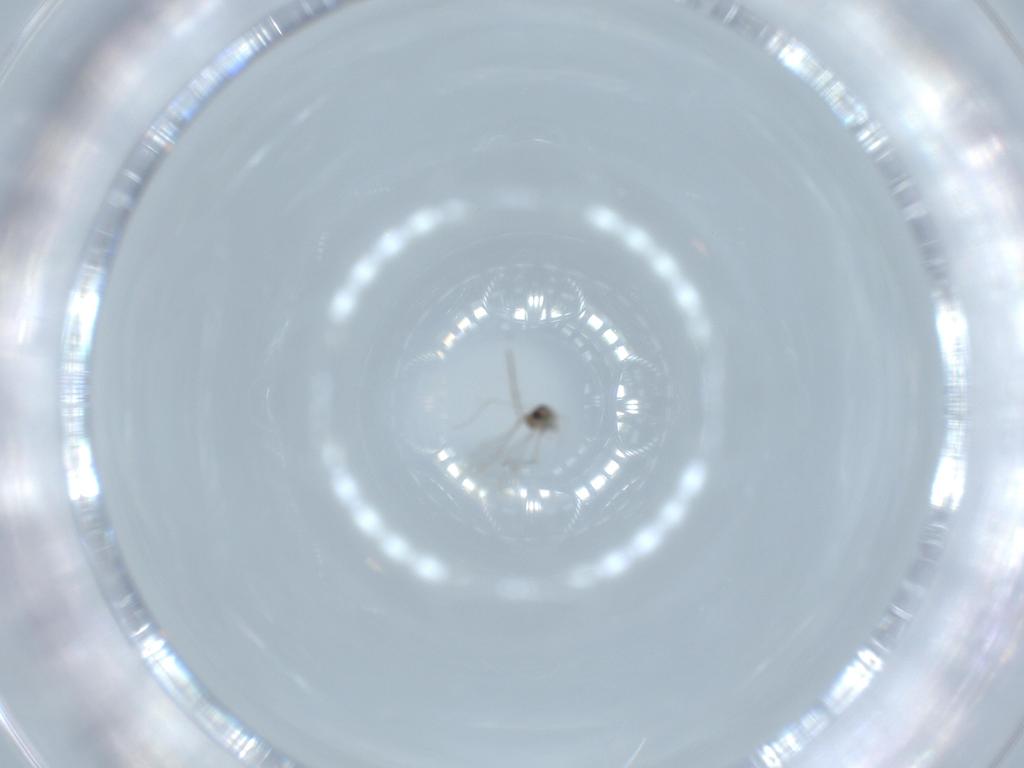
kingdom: Animalia
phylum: Arthropoda
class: Insecta
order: Diptera
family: Cecidomyiidae
